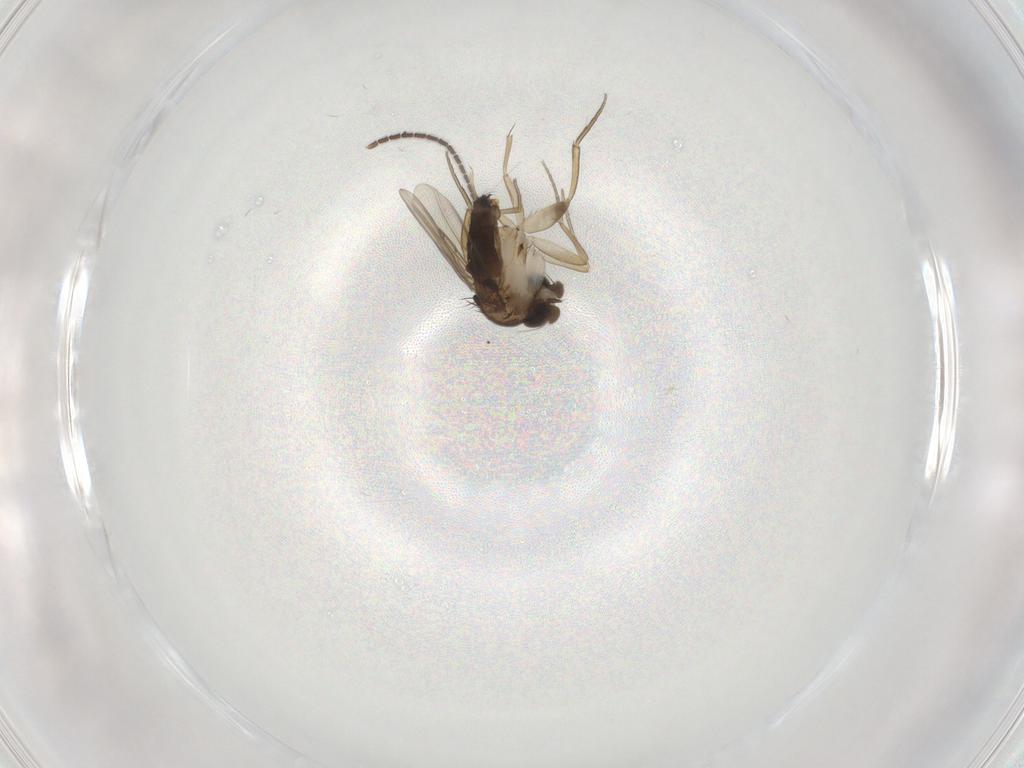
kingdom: Animalia
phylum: Arthropoda
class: Insecta
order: Diptera
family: Phoridae
